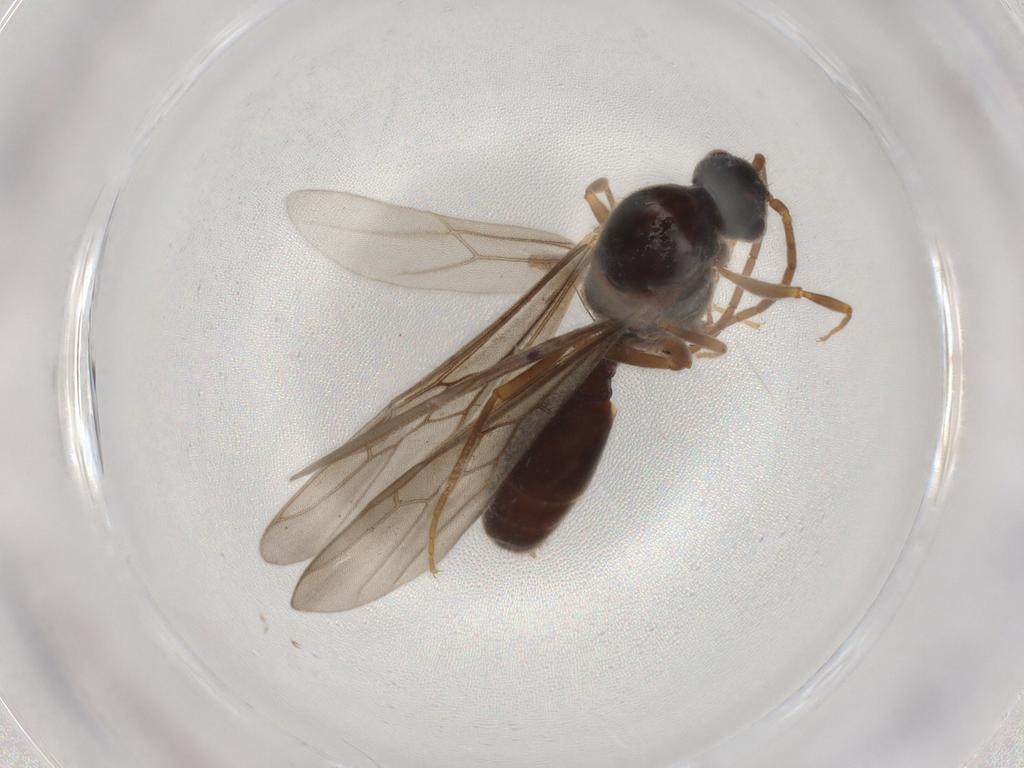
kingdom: Animalia
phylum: Arthropoda
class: Insecta
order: Hymenoptera
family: Formicidae
